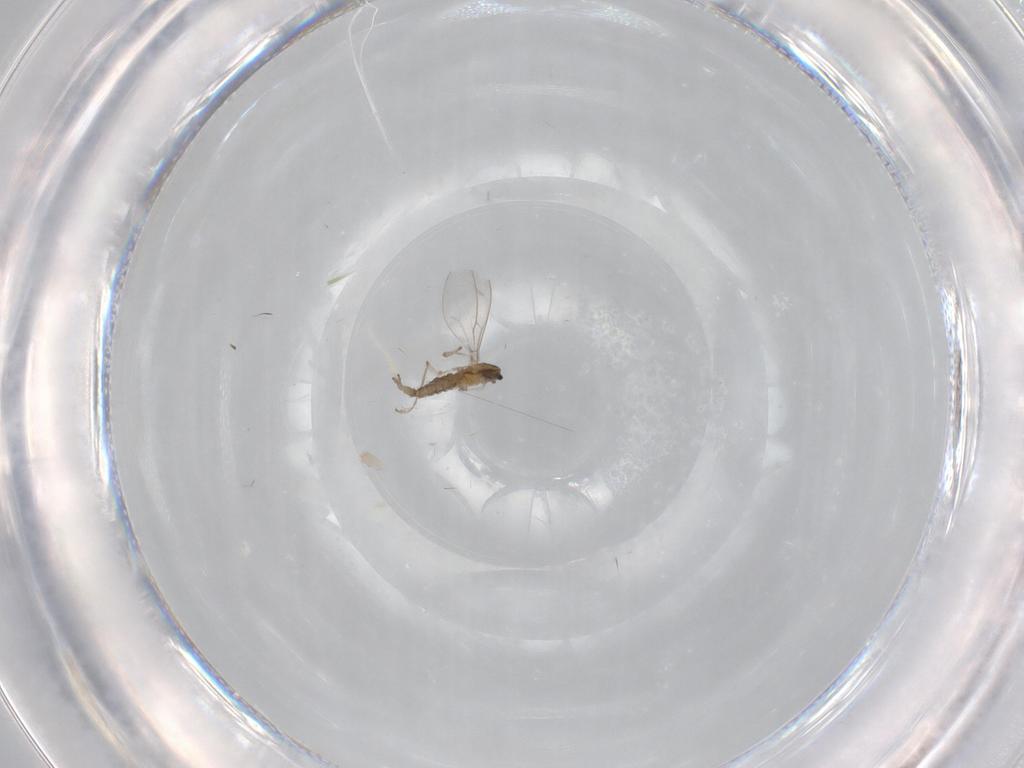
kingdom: Animalia
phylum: Arthropoda
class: Insecta
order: Diptera
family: Cecidomyiidae
